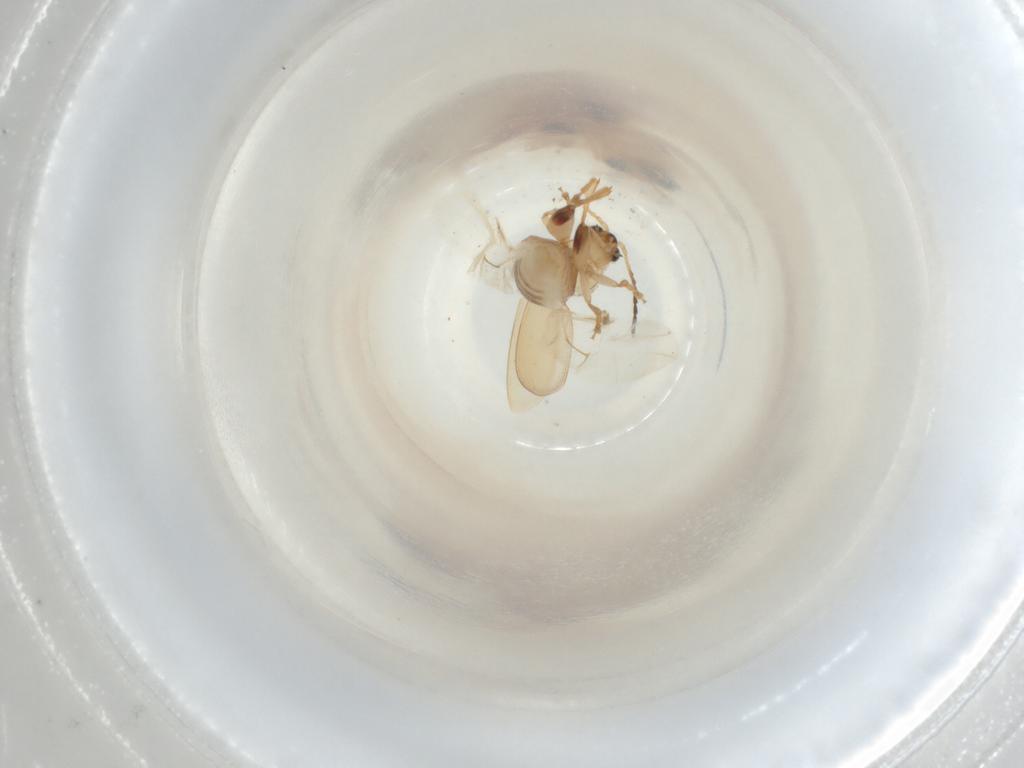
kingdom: Animalia
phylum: Arthropoda
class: Insecta
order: Coleoptera
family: Chrysomelidae
